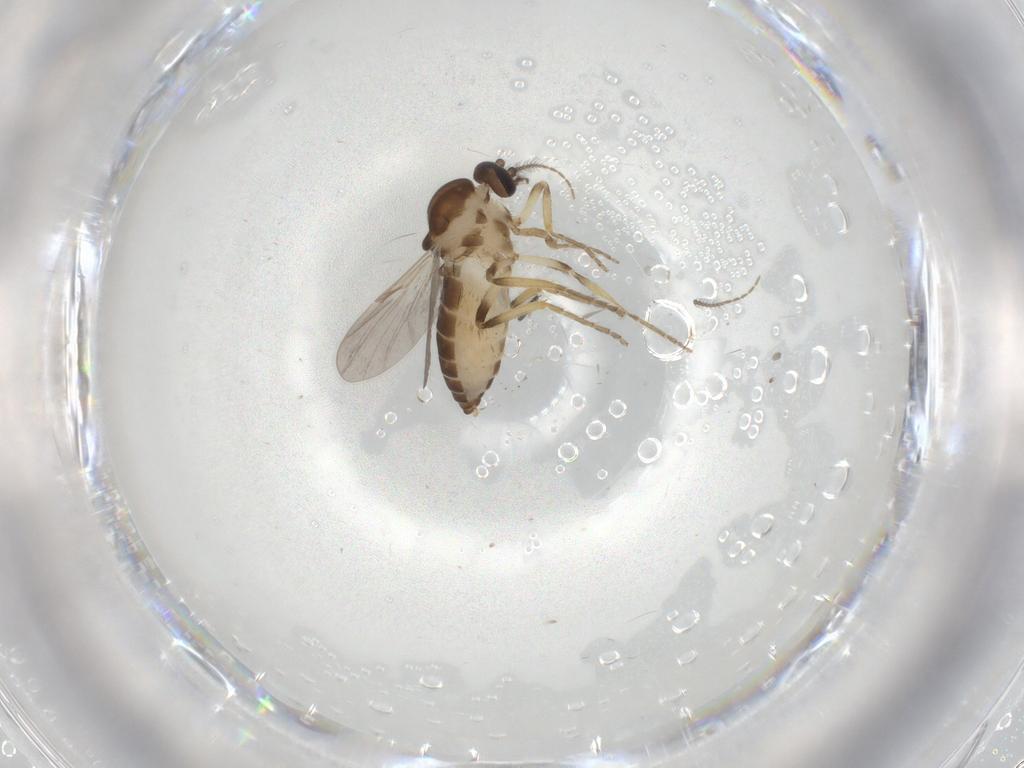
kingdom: Animalia
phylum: Arthropoda
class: Insecta
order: Diptera
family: Ceratopogonidae
